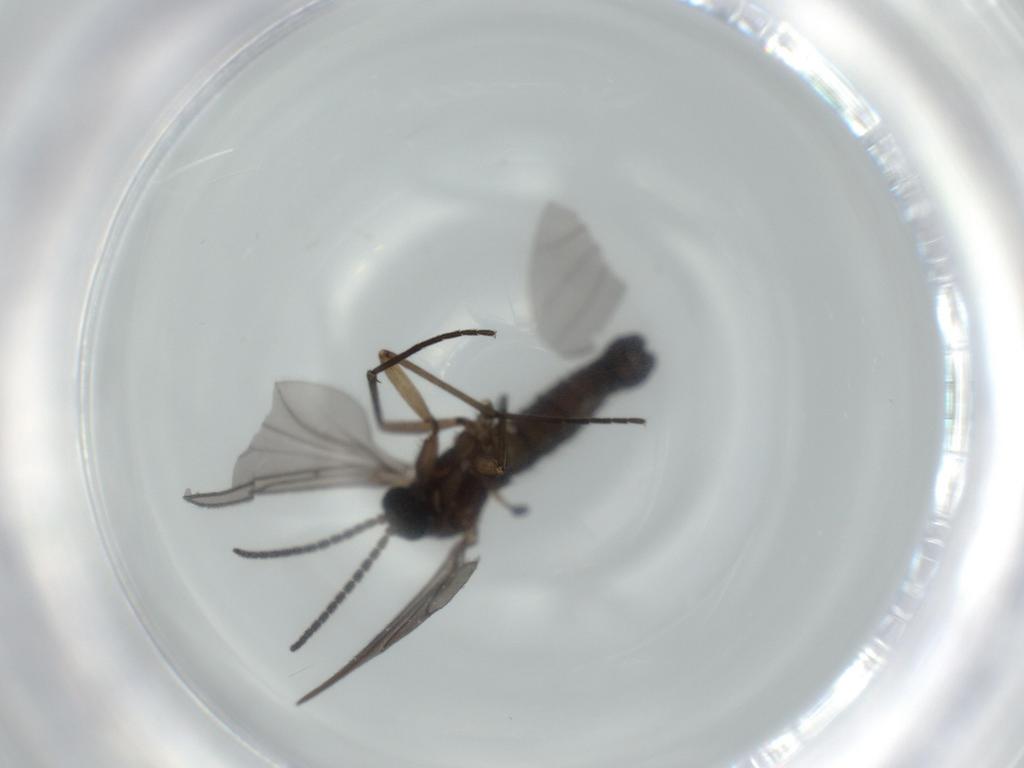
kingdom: Animalia
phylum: Arthropoda
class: Insecta
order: Diptera
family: Sciaridae
